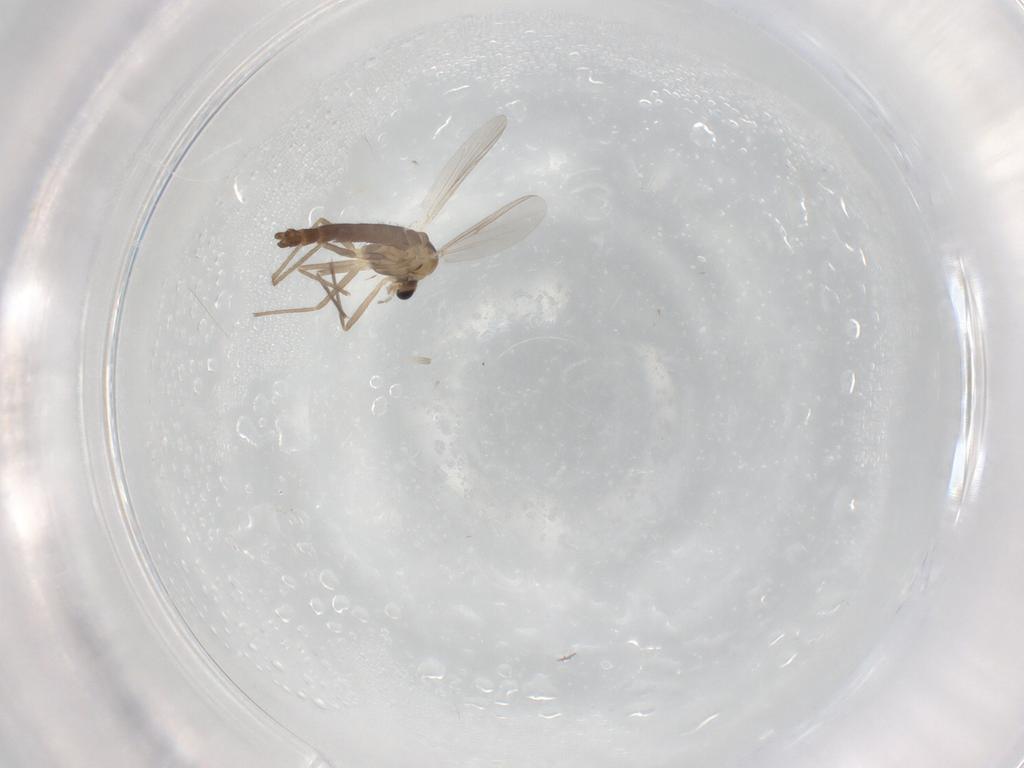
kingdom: Animalia
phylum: Arthropoda
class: Insecta
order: Diptera
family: Chironomidae
